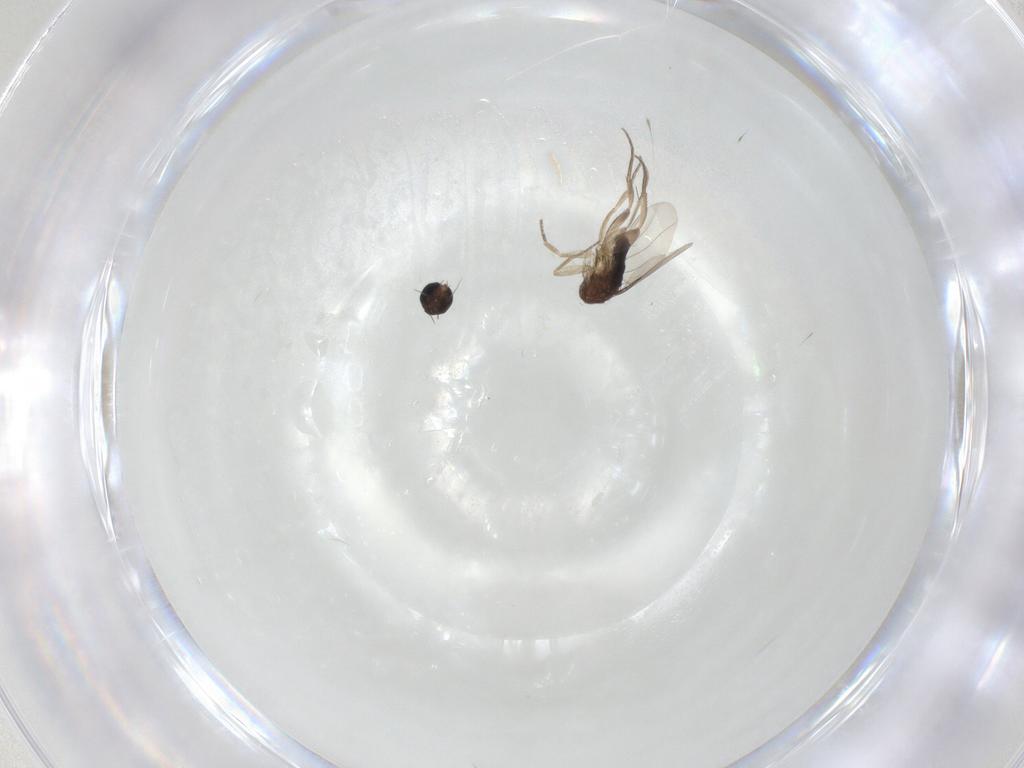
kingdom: Animalia
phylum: Arthropoda
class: Insecta
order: Diptera
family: Phoridae
